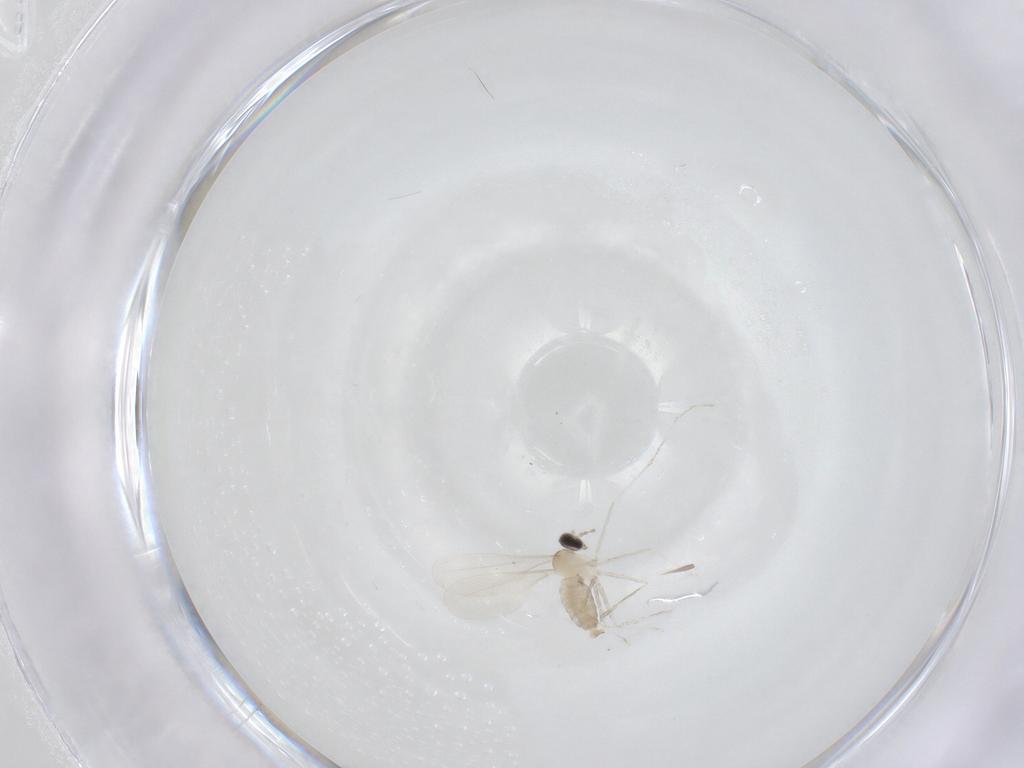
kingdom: Animalia
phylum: Arthropoda
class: Insecta
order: Diptera
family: Cecidomyiidae
